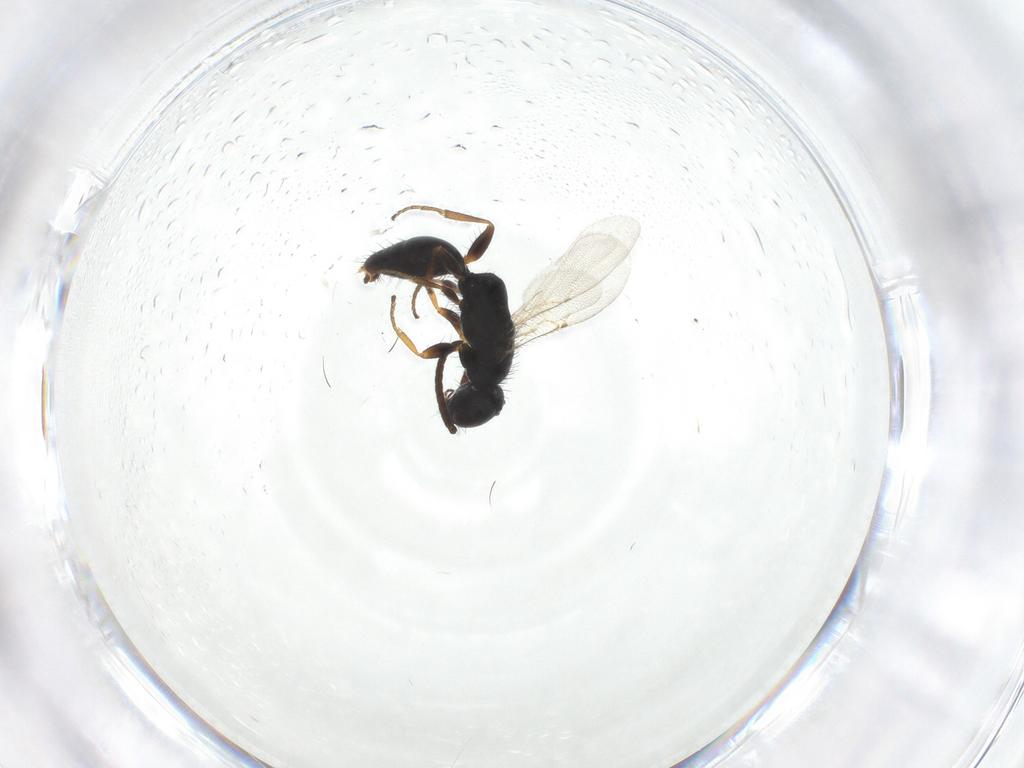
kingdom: Animalia
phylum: Arthropoda
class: Insecta
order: Hymenoptera
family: Bethylidae
